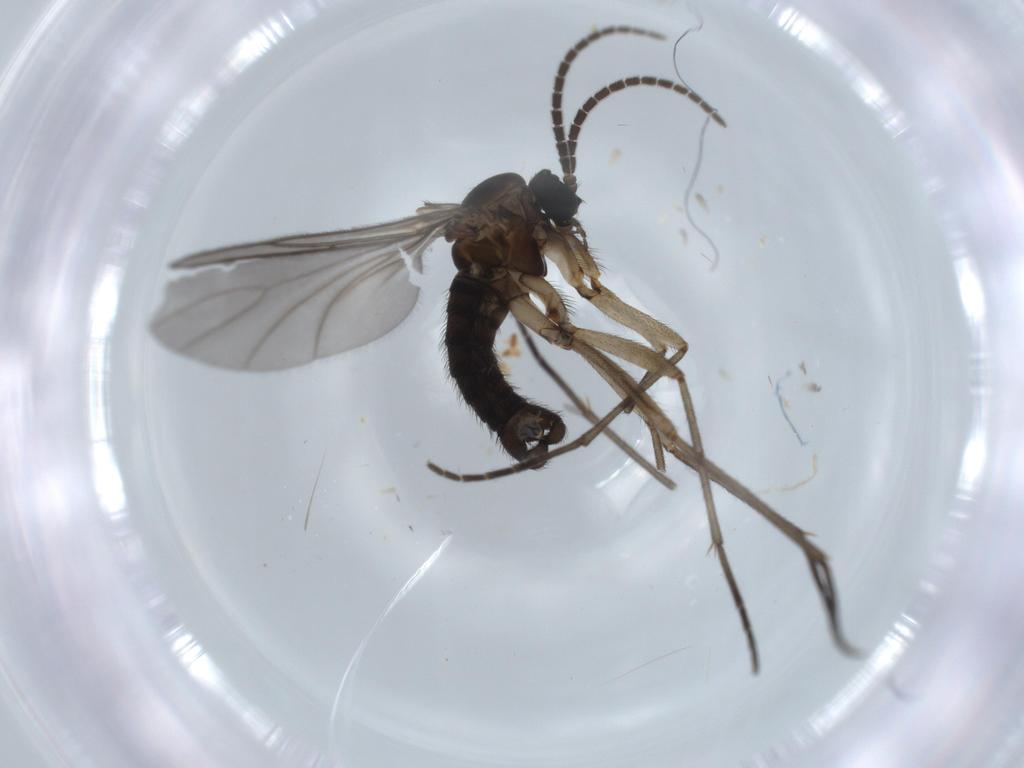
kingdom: Animalia
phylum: Arthropoda
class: Insecta
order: Diptera
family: Sciaridae
